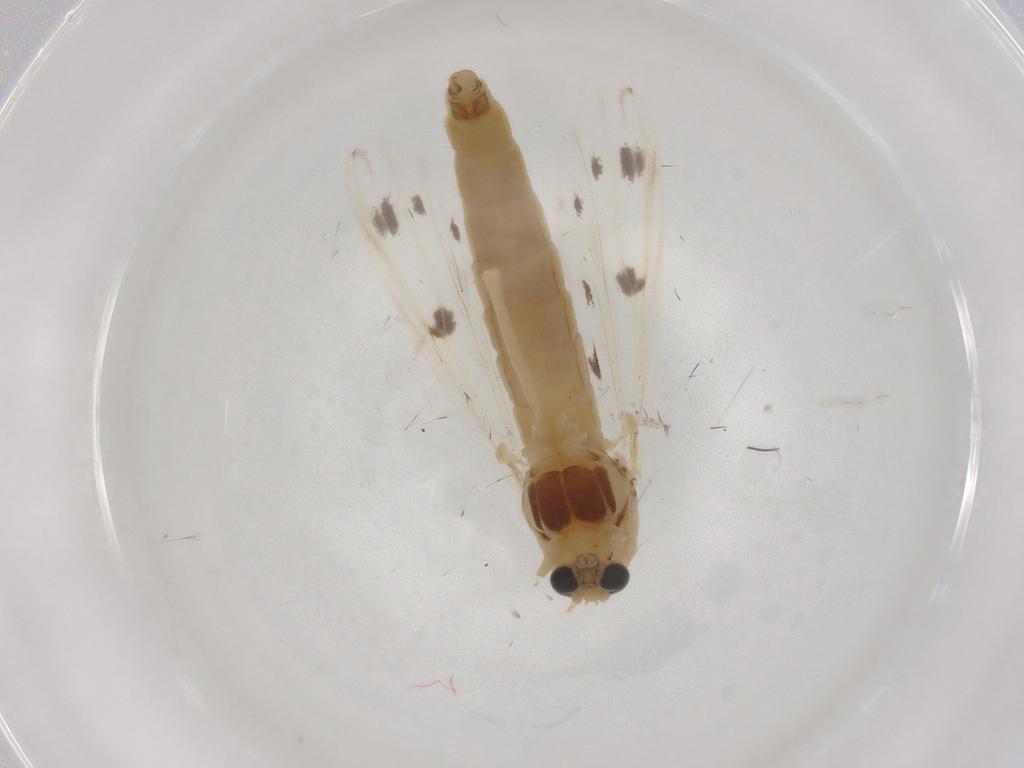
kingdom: Animalia
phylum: Arthropoda
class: Insecta
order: Diptera
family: Chironomidae
